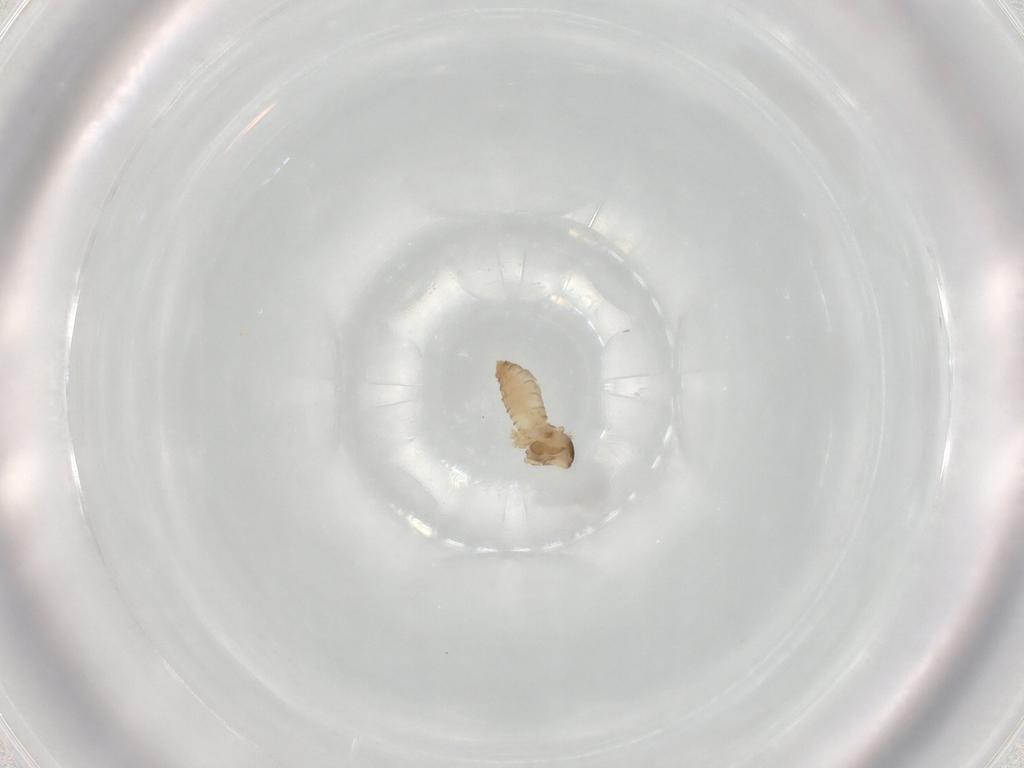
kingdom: Animalia
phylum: Arthropoda
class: Insecta
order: Diptera
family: Cecidomyiidae
